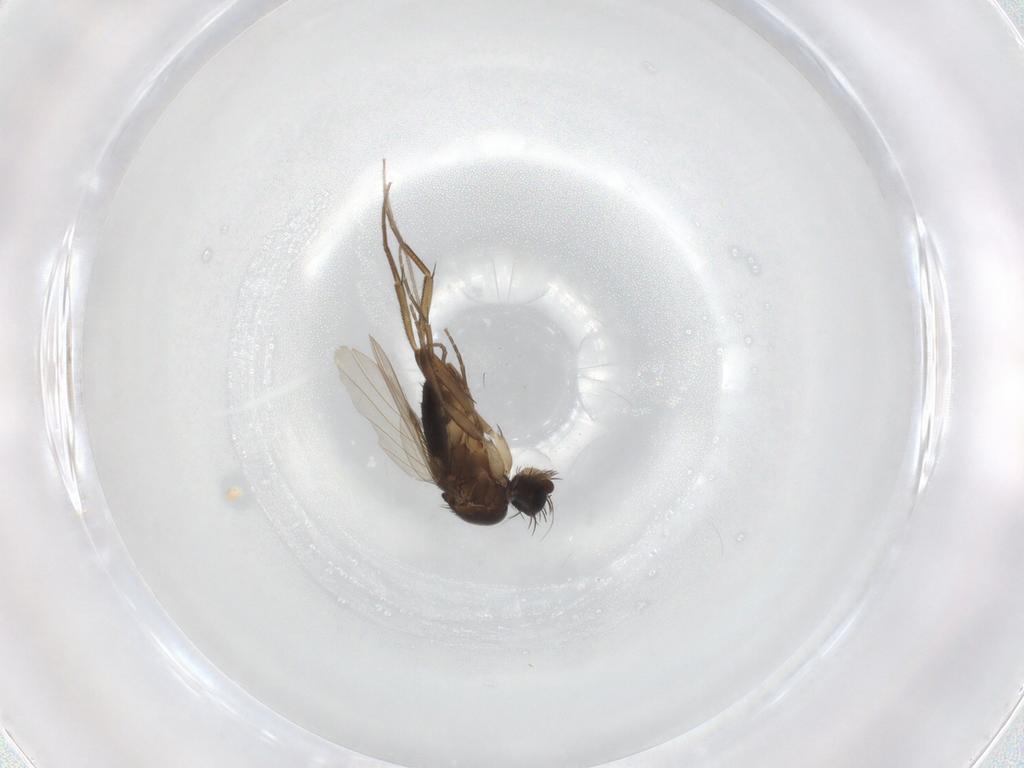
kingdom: Animalia
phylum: Arthropoda
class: Insecta
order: Diptera
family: Phoridae
